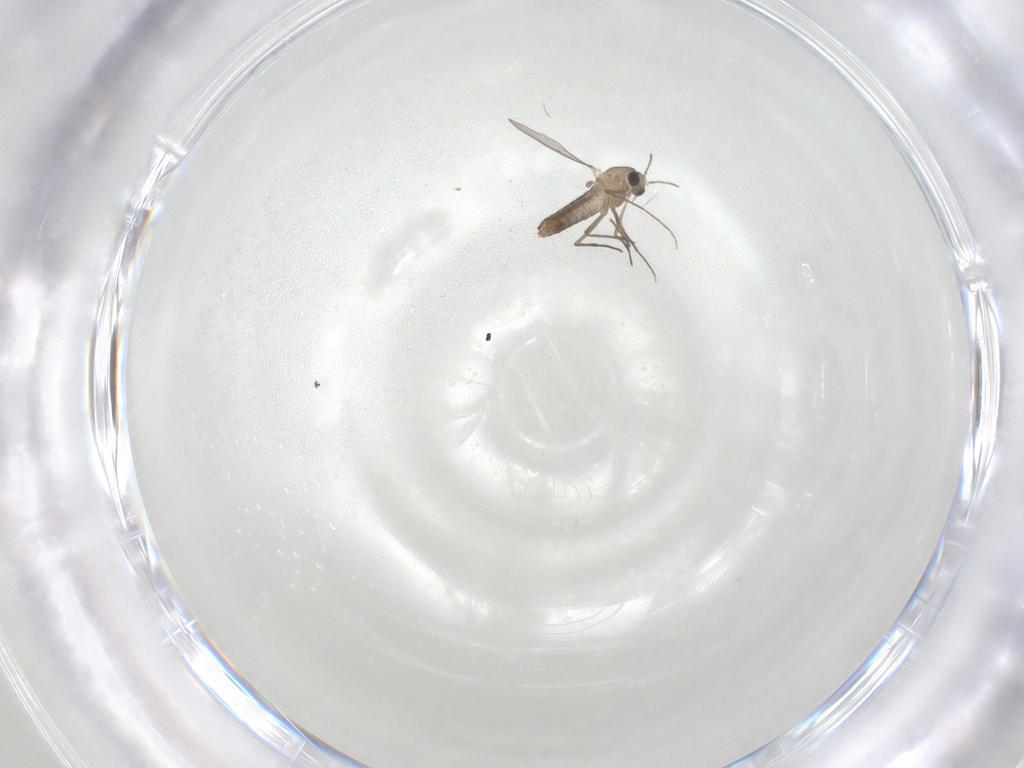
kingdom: Animalia
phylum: Arthropoda
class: Insecta
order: Diptera
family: Chironomidae
